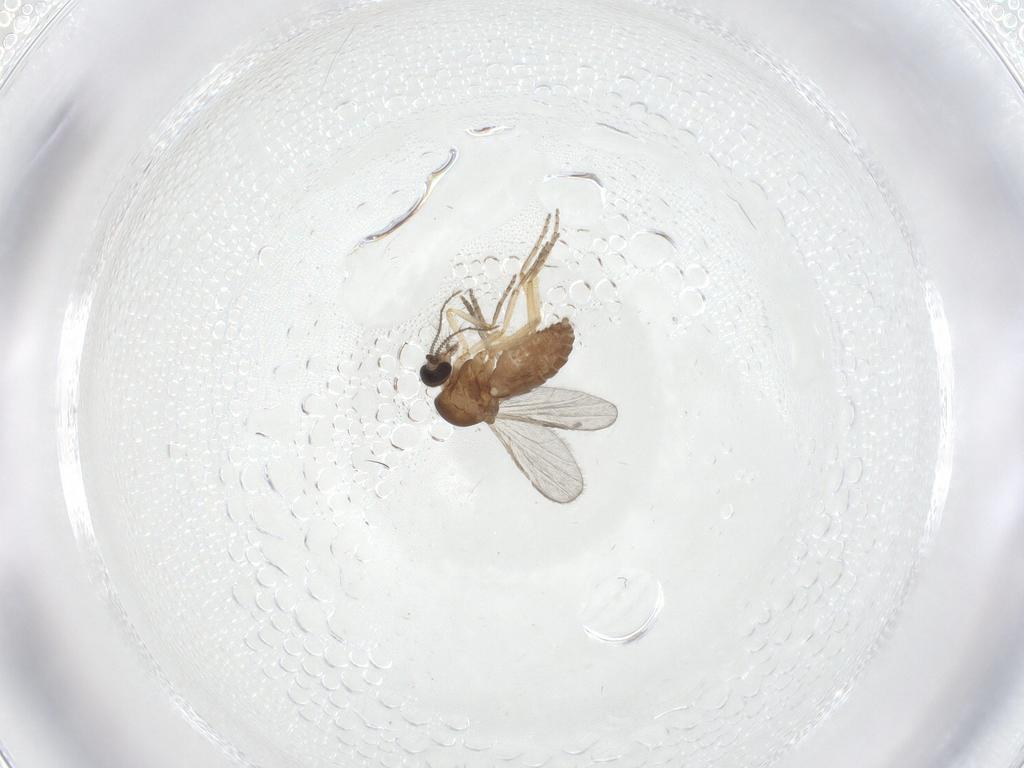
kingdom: Animalia
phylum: Arthropoda
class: Insecta
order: Diptera
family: Ceratopogonidae
